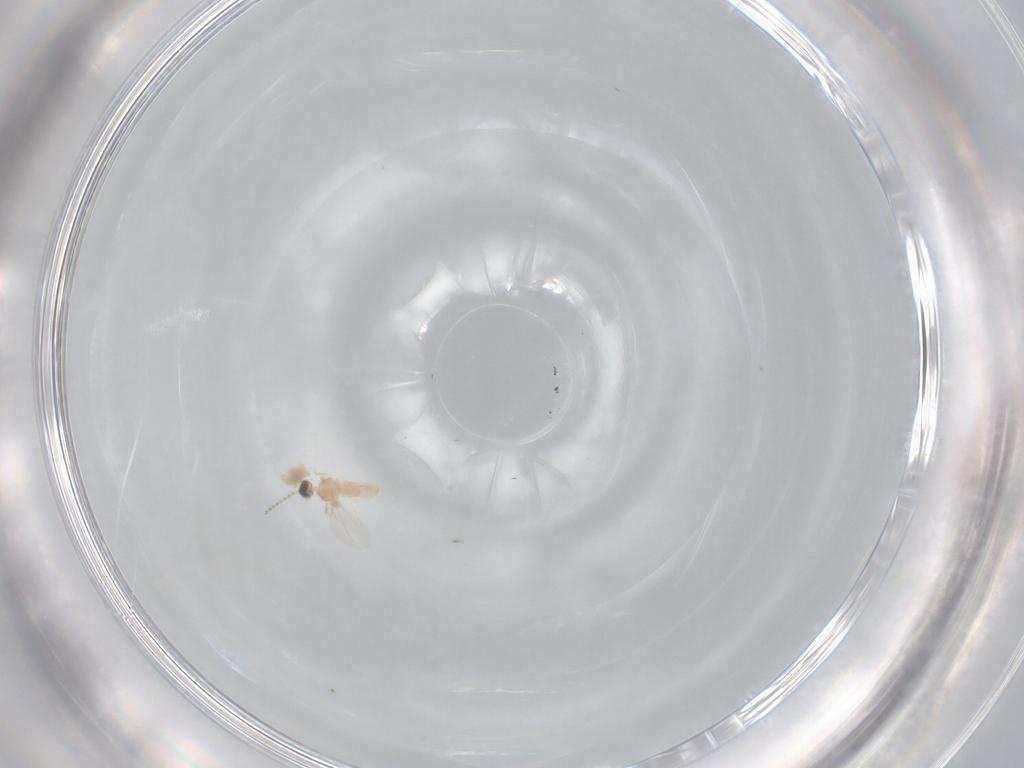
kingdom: Animalia
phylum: Arthropoda
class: Insecta
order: Diptera
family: Cecidomyiidae
